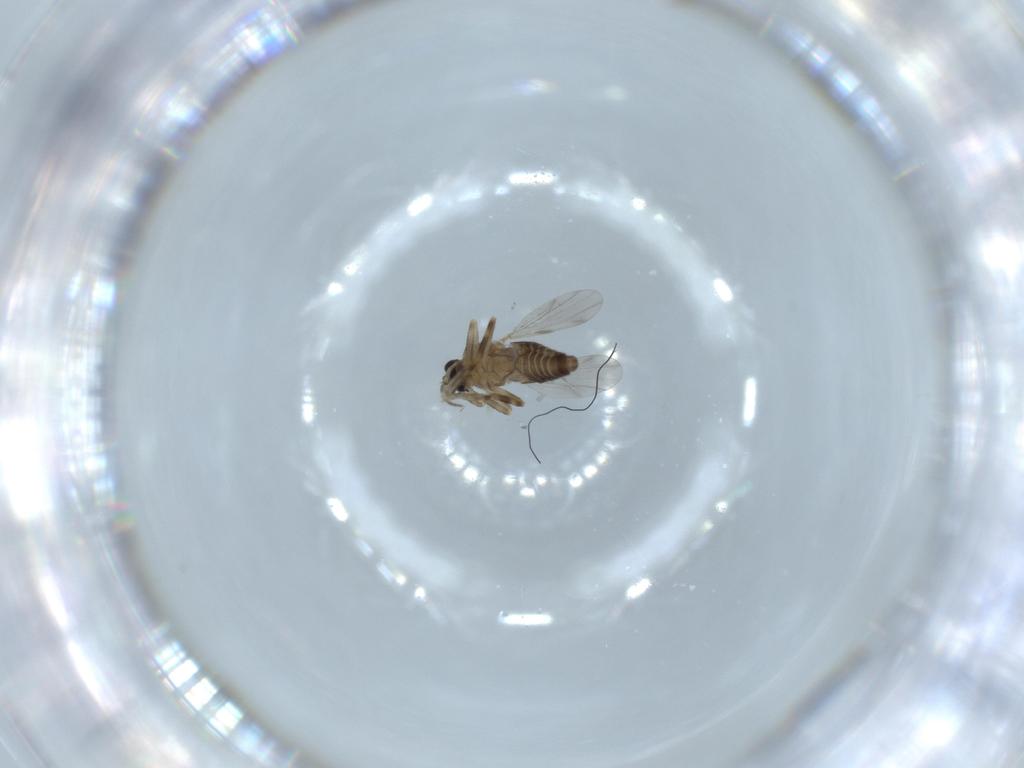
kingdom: Animalia
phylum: Arthropoda
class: Insecta
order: Diptera
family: Ceratopogonidae
